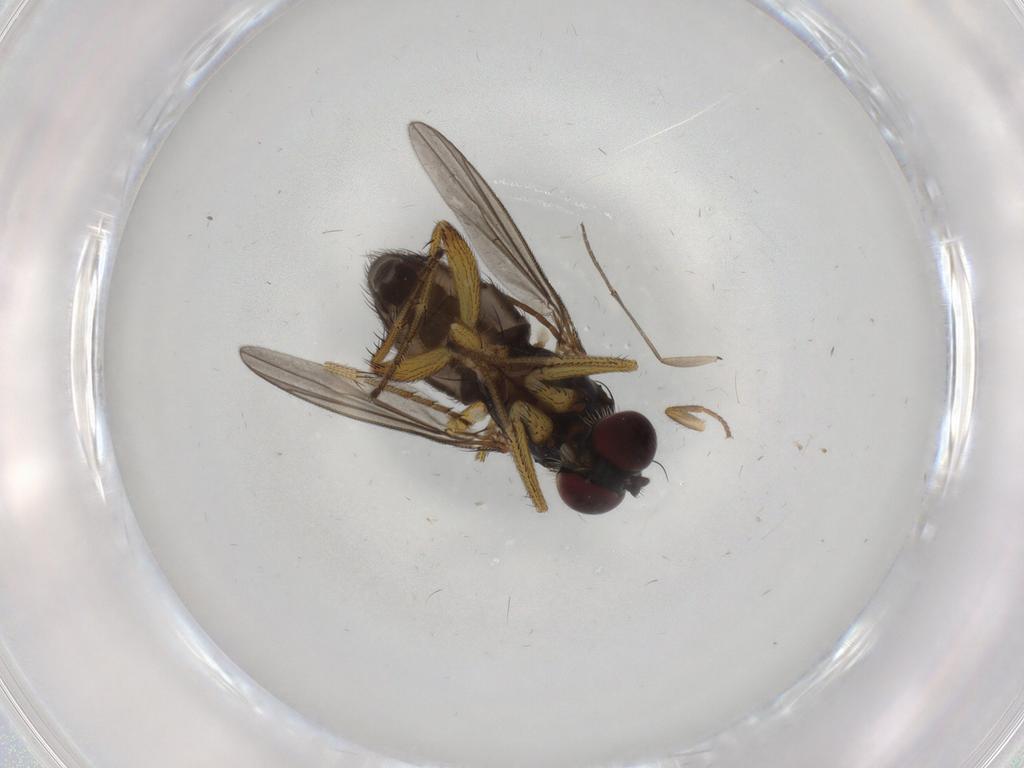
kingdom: Animalia
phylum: Arthropoda
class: Insecta
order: Diptera
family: Dolichopodidae
